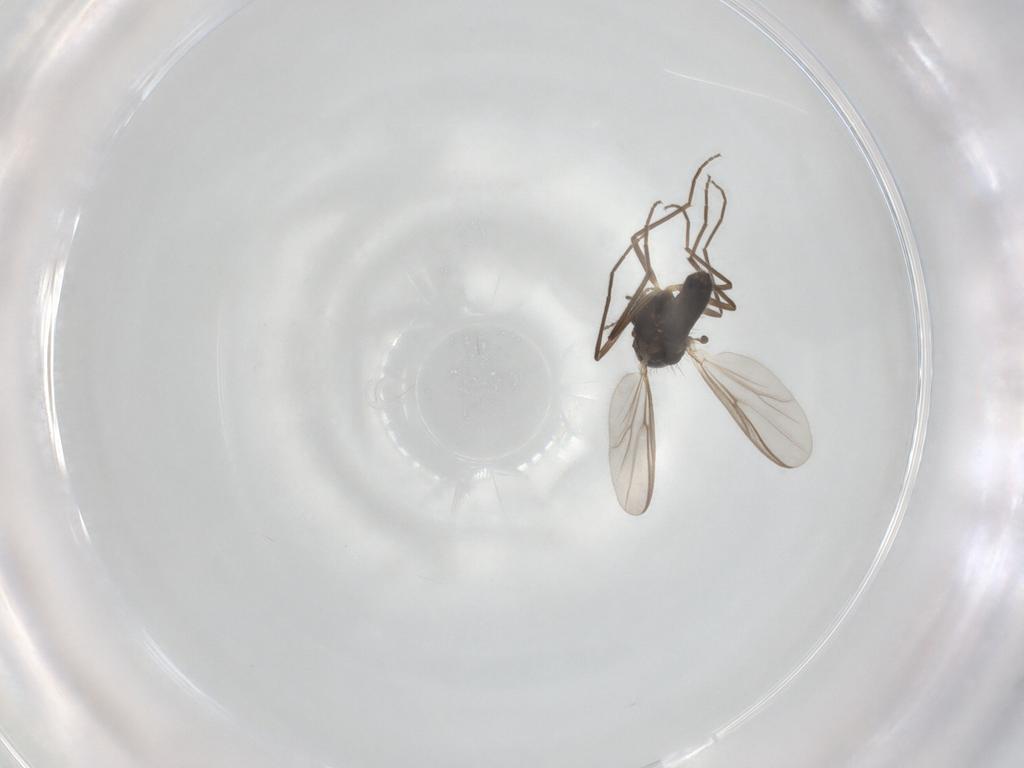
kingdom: Animalia
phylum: Arthropoda
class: Insecta
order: Diptera
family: Chironomidae
